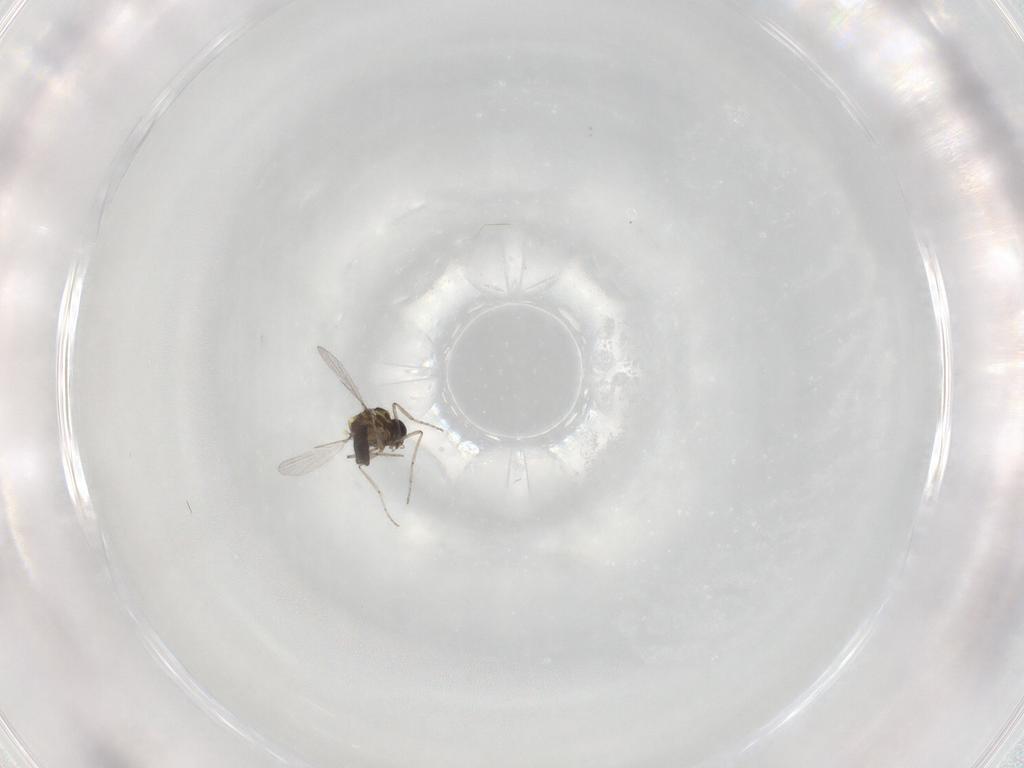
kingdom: Animalia
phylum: Arthropoda
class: Insecta
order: Diptera
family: Ceratopogonidae
